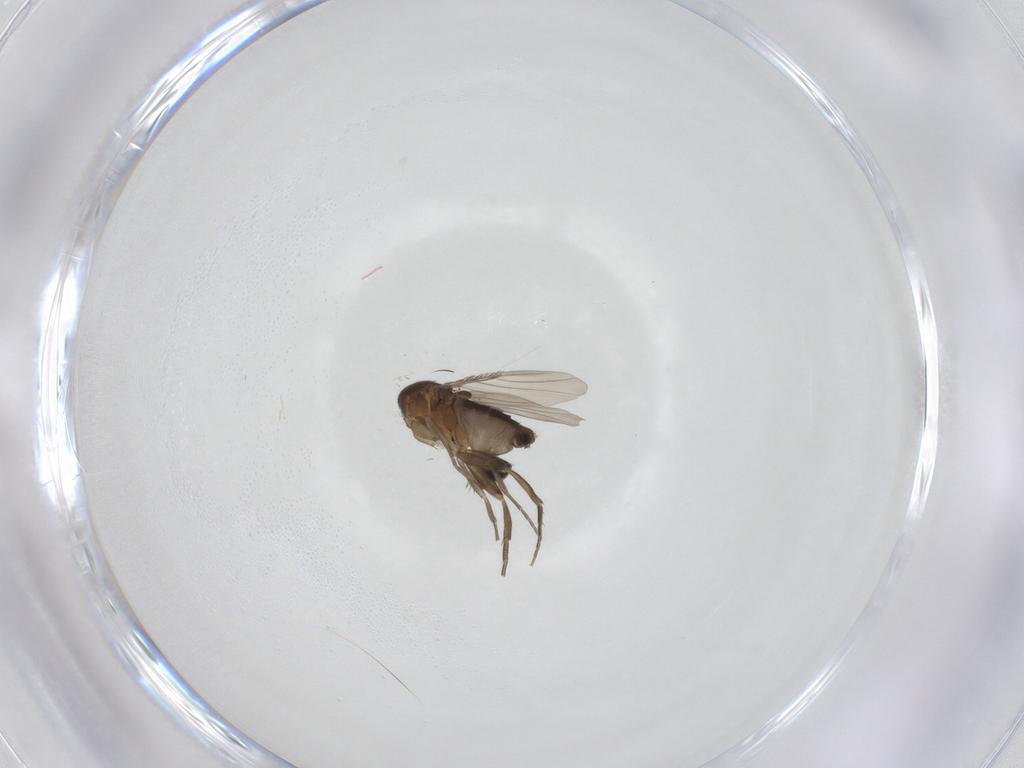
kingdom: Animalia
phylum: Arthropoda
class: Insecta
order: Diptera
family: Phoridae
